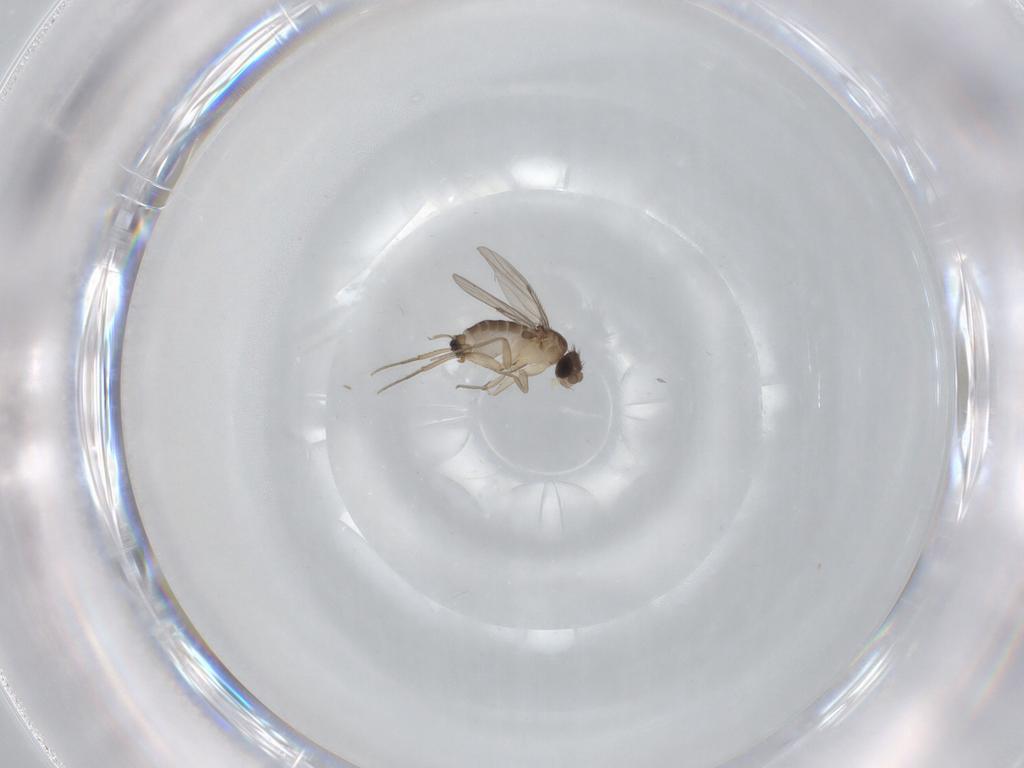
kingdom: Animalia
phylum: Arthropoda
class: Insecta
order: Diptera
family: Phoridae
